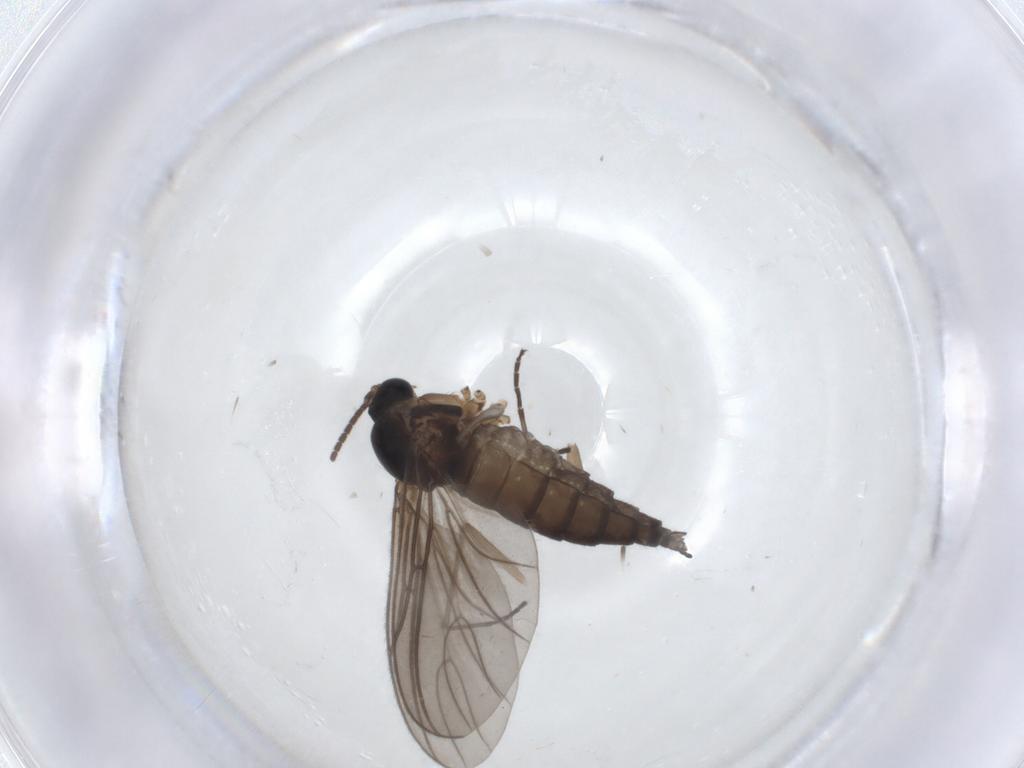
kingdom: Animalia
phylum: Arthropoda
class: Insecta
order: Diptera
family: Sciaridae
